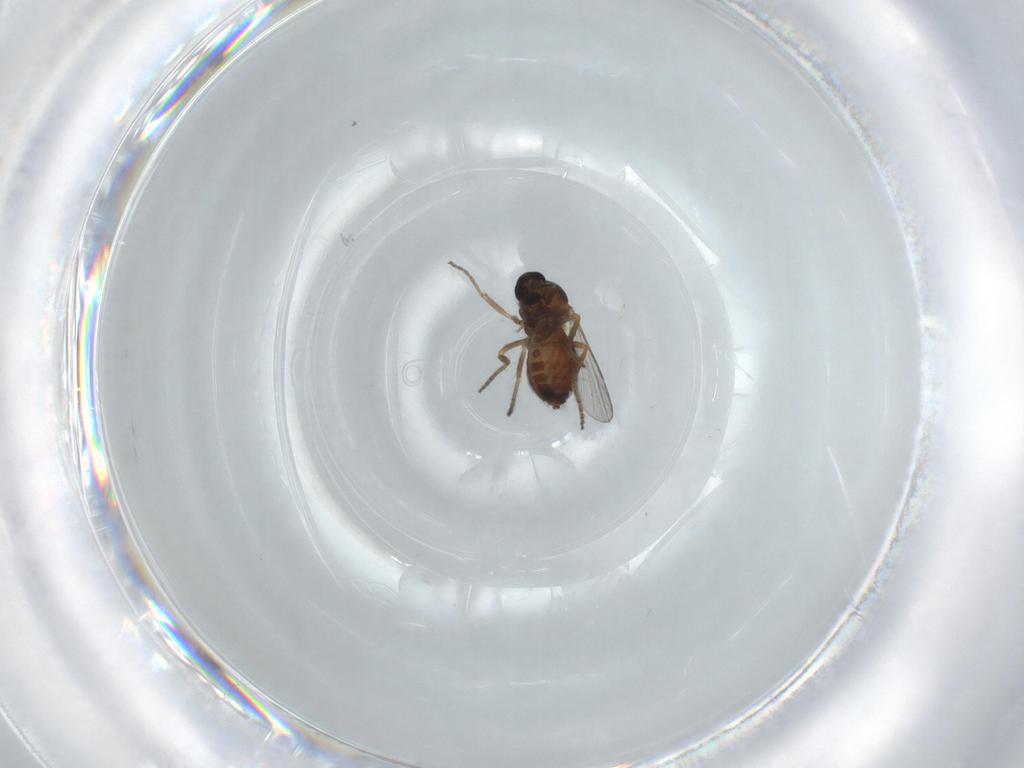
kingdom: Animalia
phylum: Arthropoda
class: Insecta
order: Diptera
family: Ceratopogonidae
